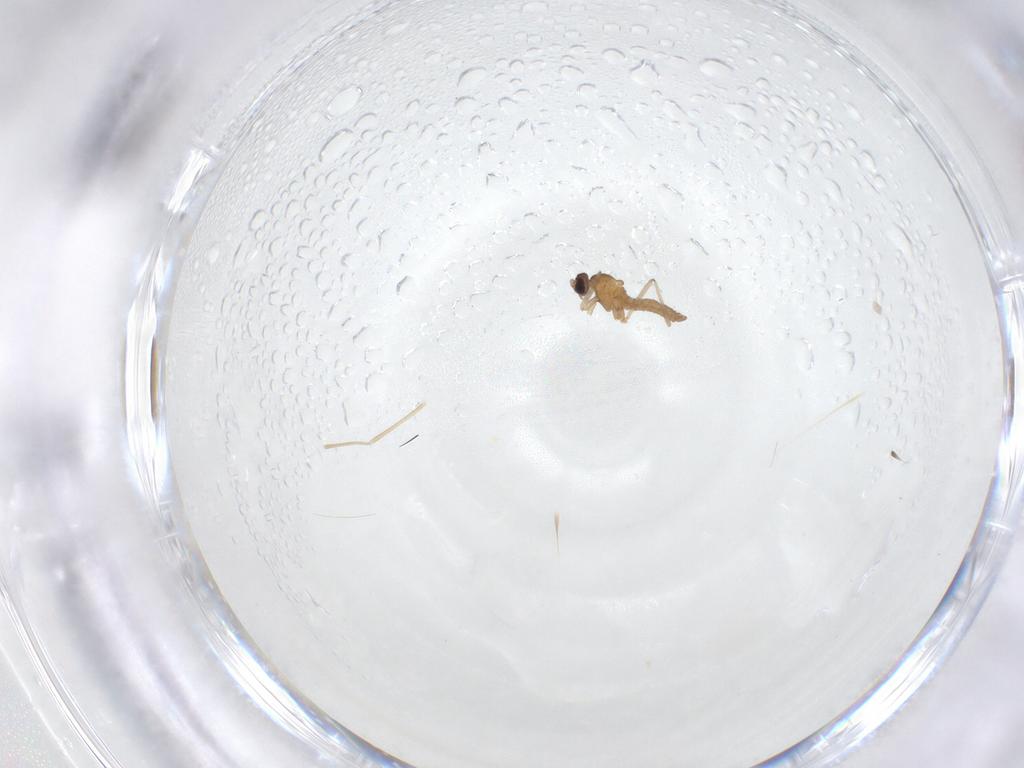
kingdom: Animalia
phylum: Arthropoda
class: Insecta
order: Diptera
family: Cecidomyiidae
